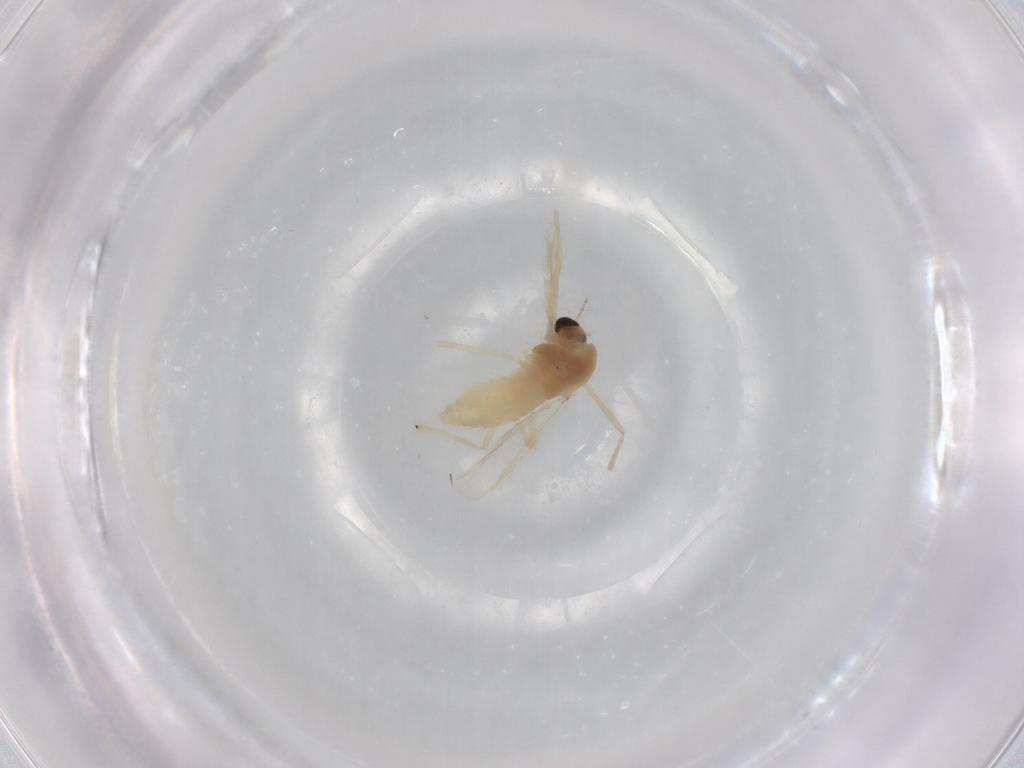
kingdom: Animalia
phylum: Arthropoda
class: Insecta
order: Diptera
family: Chironomidae
